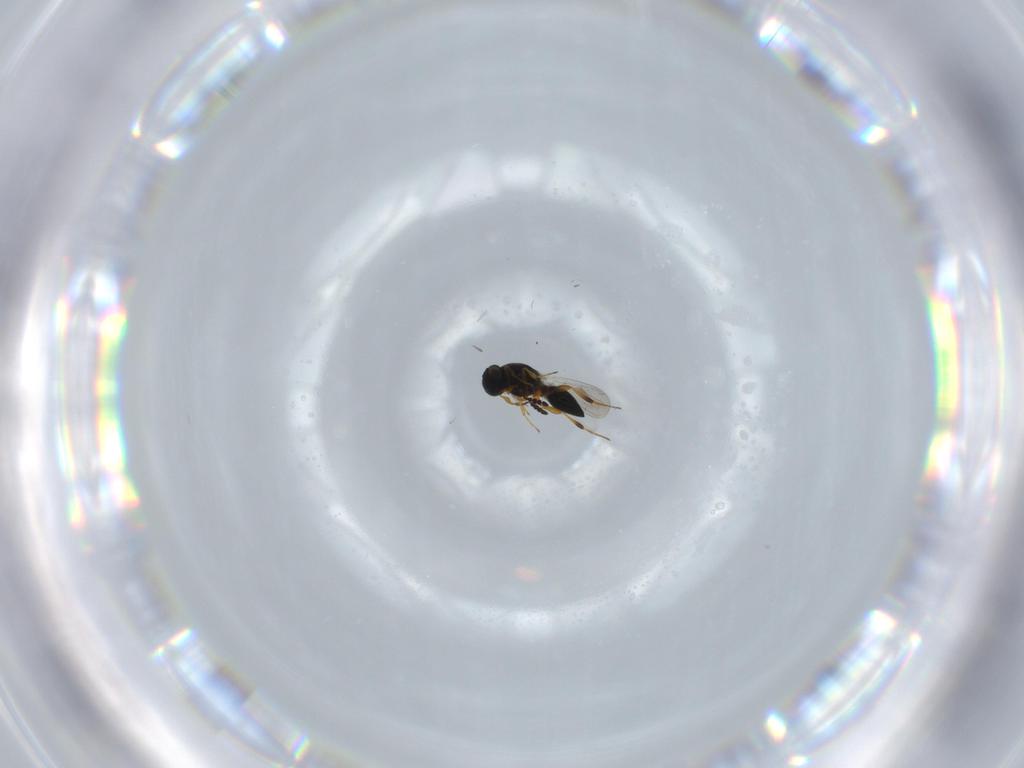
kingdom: Animalia
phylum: Arthropoda
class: Insecta
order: Hymenoptera
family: Platygastridae
